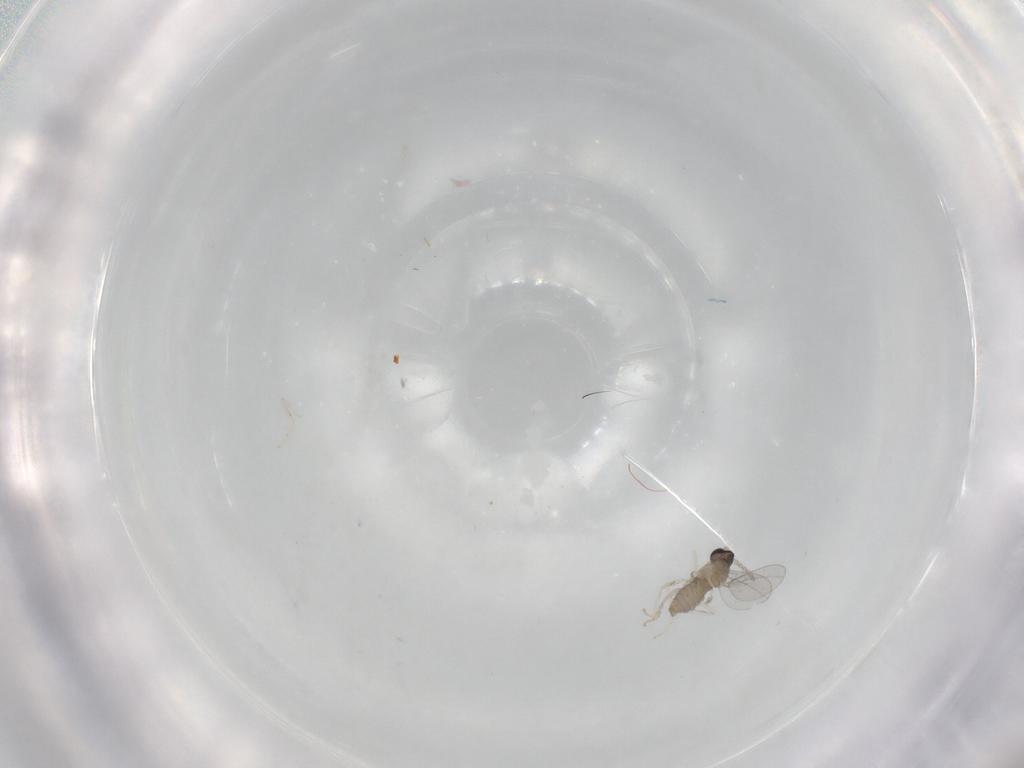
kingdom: Animalia
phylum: Arthropoda
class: Insecta
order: Diptera
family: Cecidomyiidae
